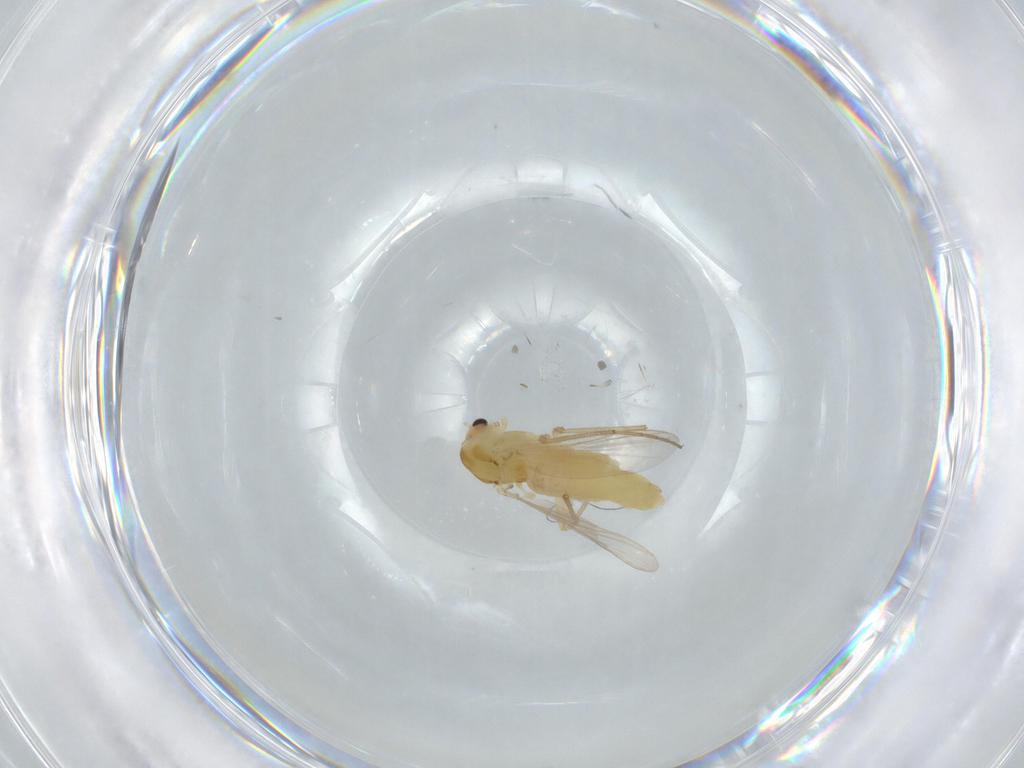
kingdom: Animalia
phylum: Arthropoda
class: Insecta
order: Diptera
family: Chironomidae
